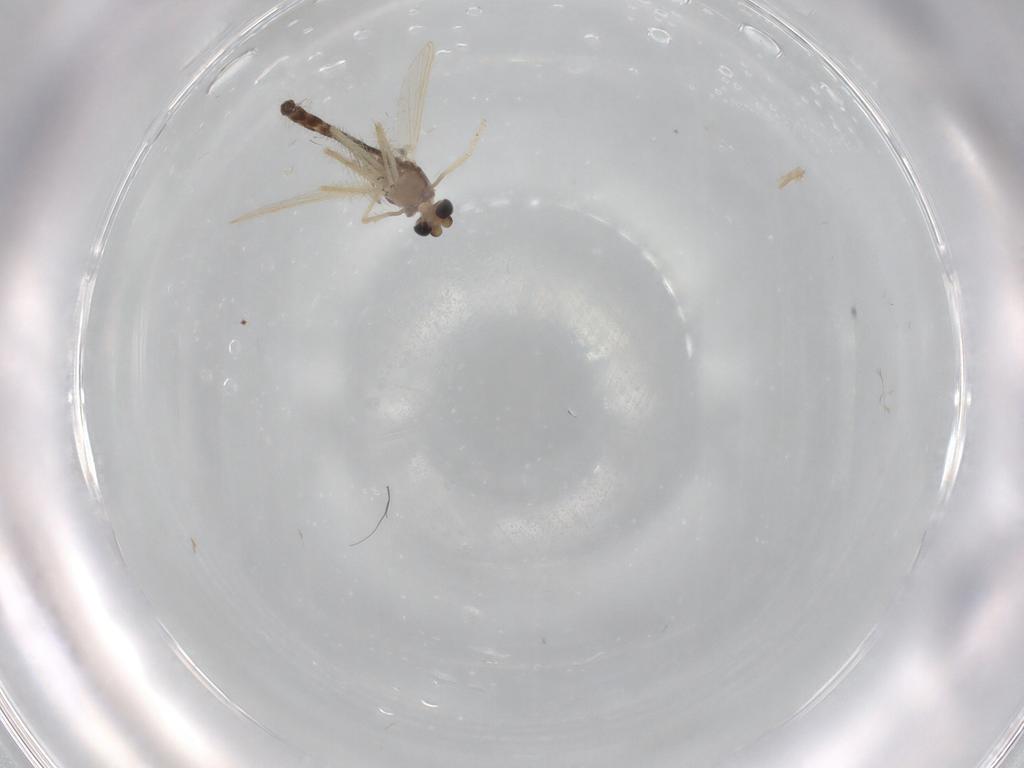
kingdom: Animalia
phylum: Arthropoda
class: Insecta
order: Diptera
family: Chironomidae
